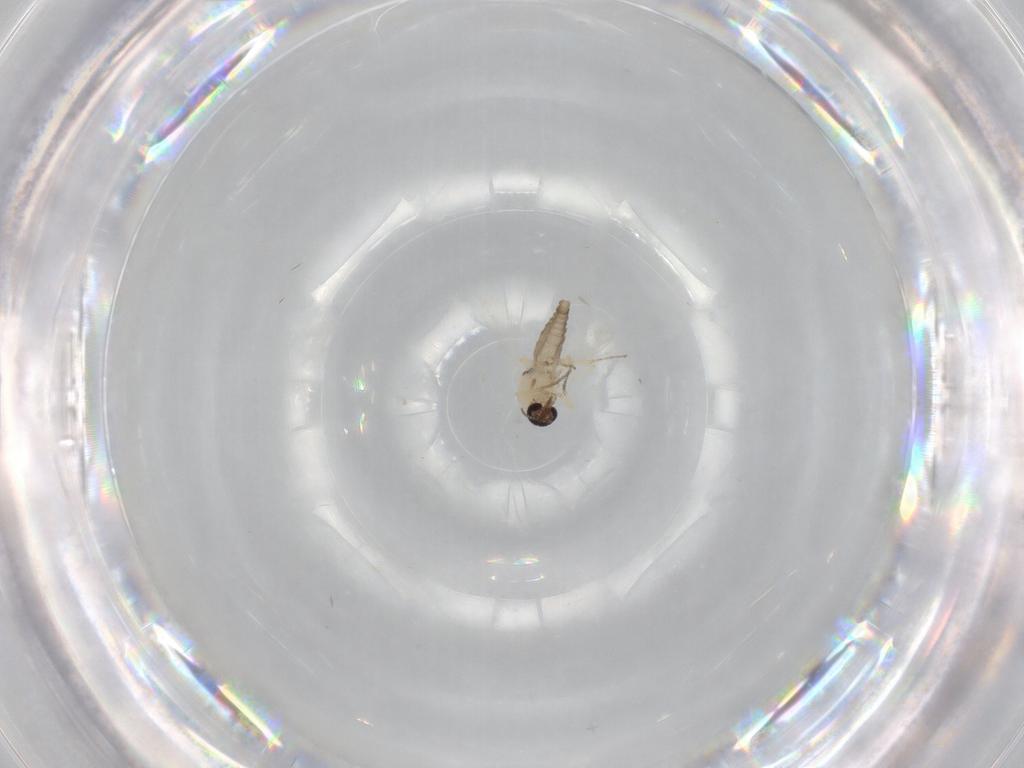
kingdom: Animalia
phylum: Arthropoda
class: Insecta
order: Diptera
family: Ceratopogonidae
